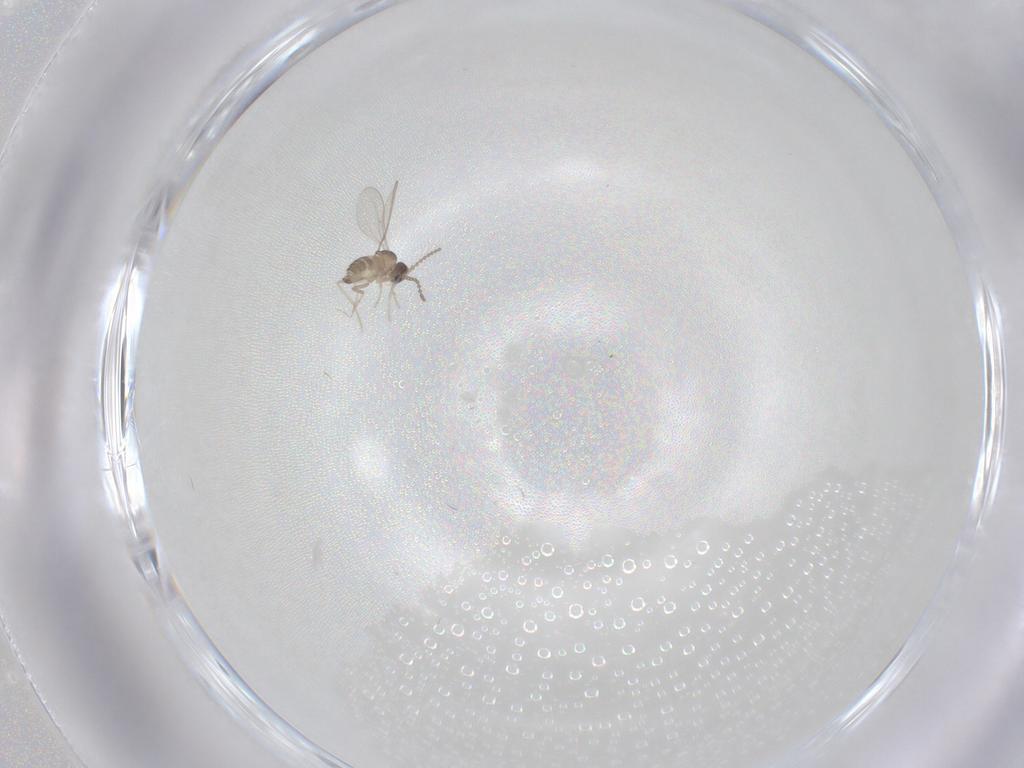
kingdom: Animalia
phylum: Arthropoda
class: Insecta
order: Diptera
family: Cecidomyiidae
